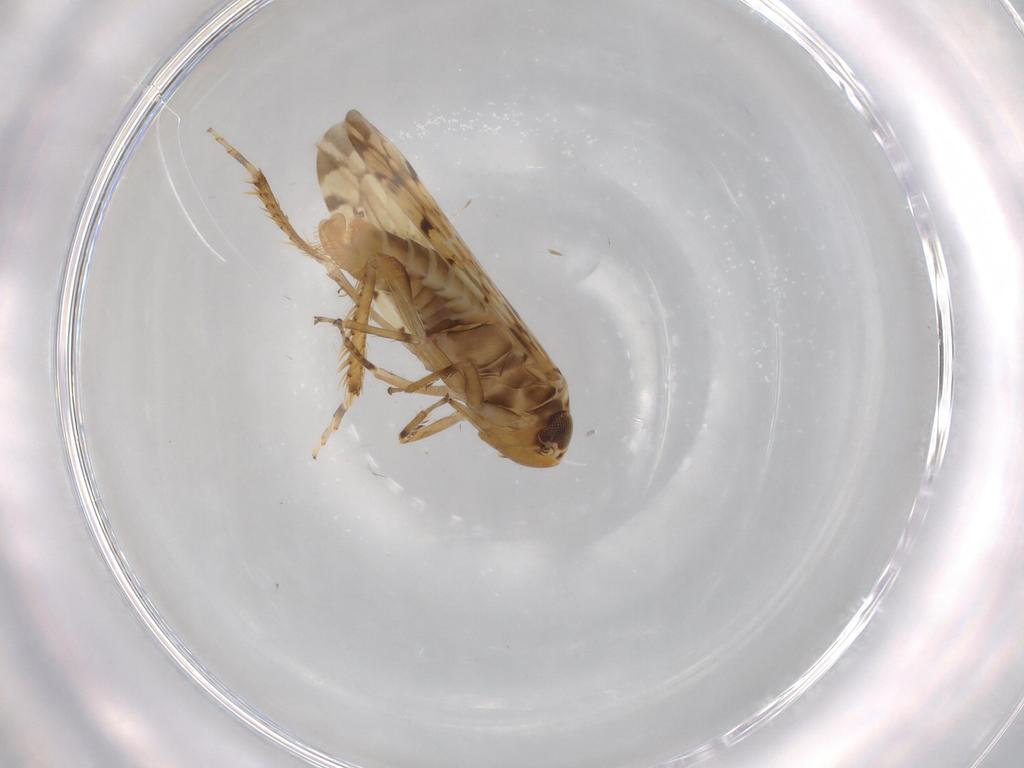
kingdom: Animalia
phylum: Arthropoda
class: Insecta
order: Hemiptera
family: Cicadellidae
